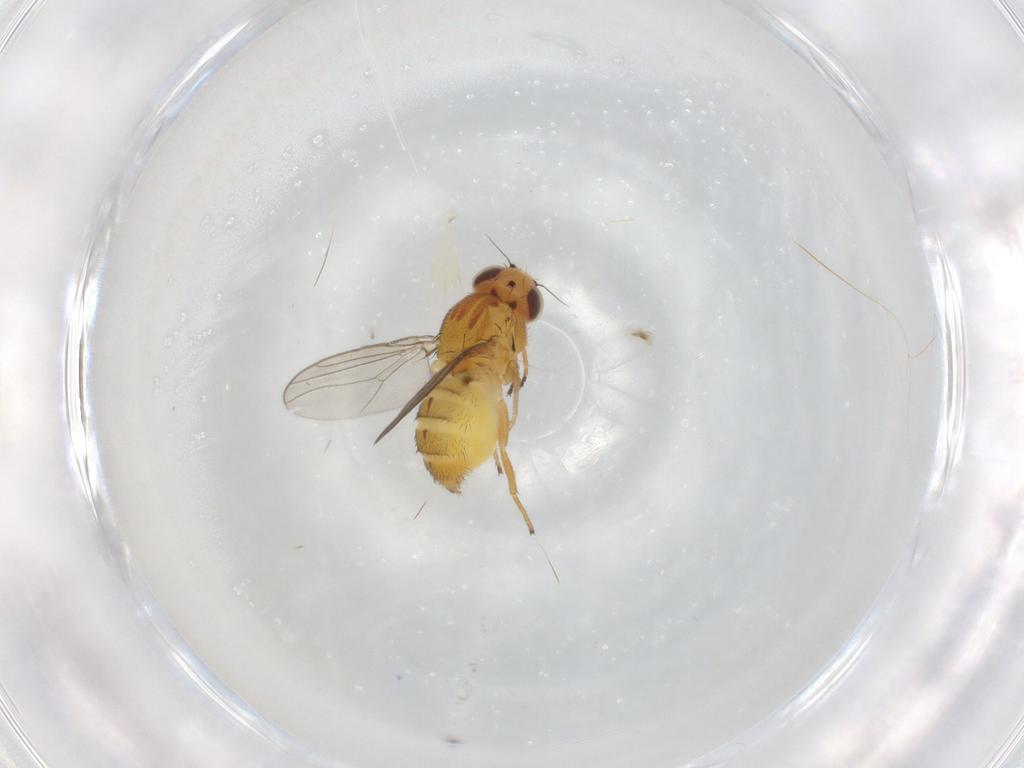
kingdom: Animalia
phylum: Arthropoda
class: Insecta
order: Diptera
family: Chloropidae
